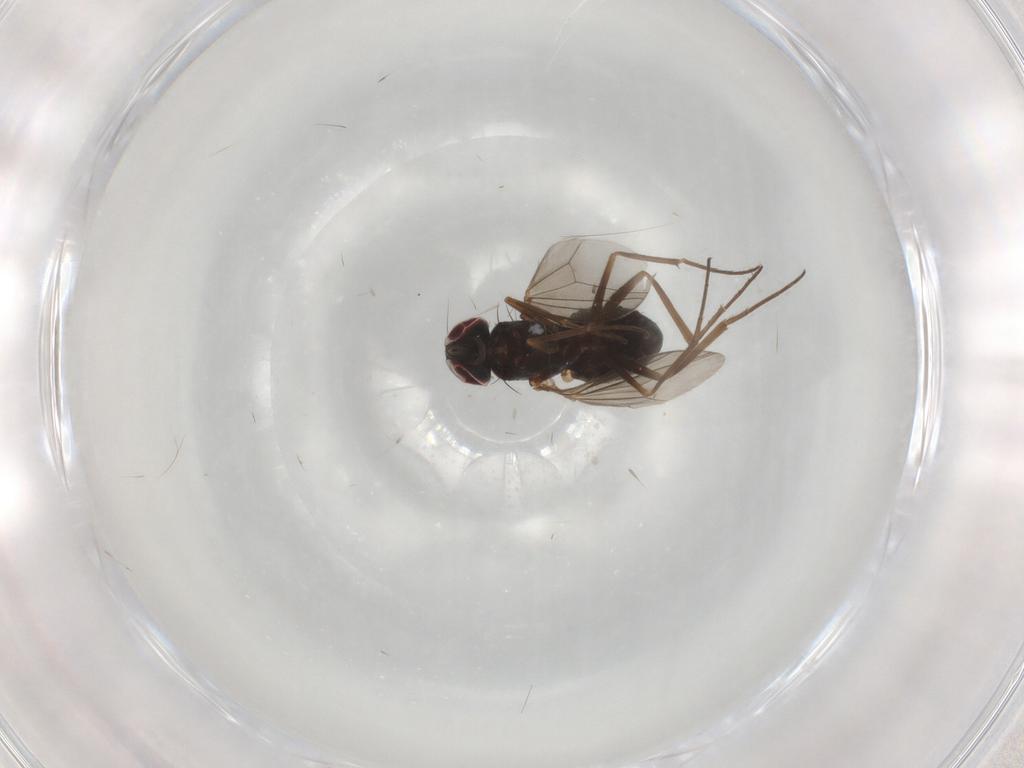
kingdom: Animalia
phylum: Arthropoda
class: Insecta
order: Diptera
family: Dolichopodidae
